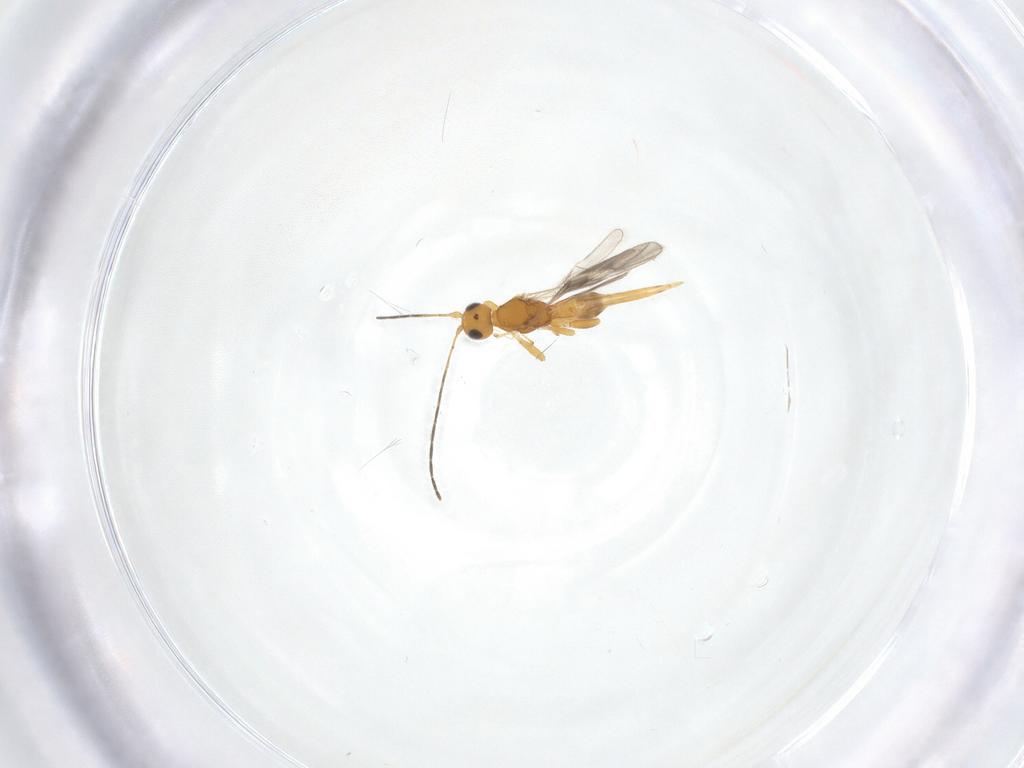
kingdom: Animalia
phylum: Arthropoda
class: Insecta
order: Hymenoptera
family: Braconidae
